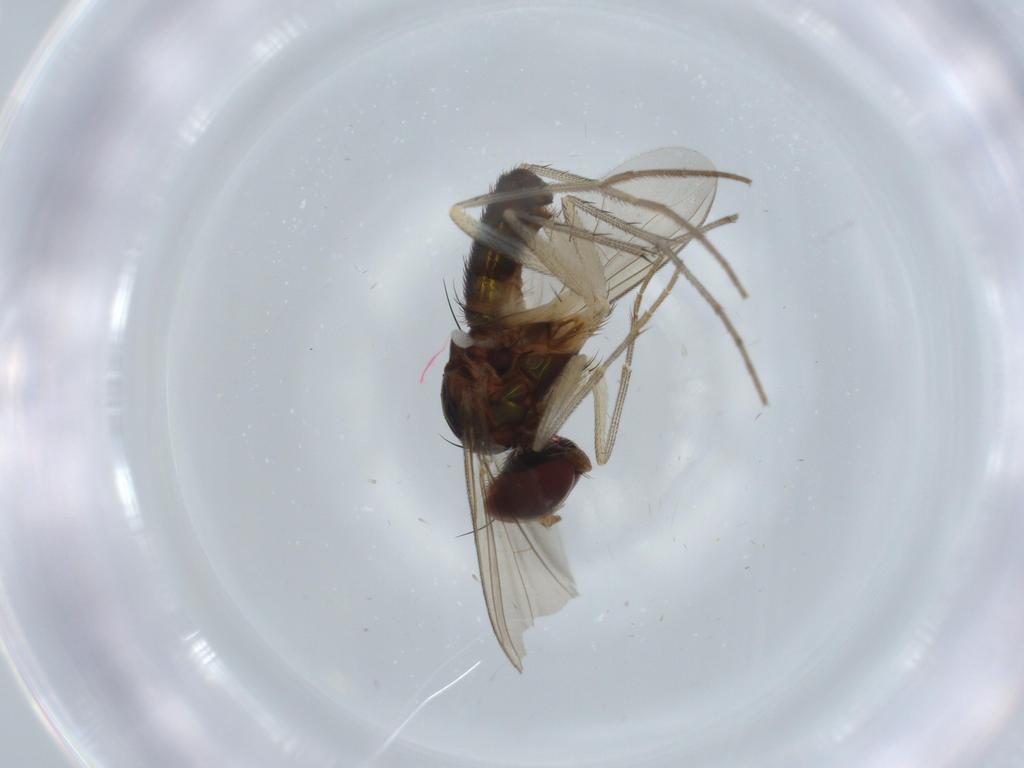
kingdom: Animalia
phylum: Arthropoda
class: Insecta
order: Diptera
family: Dolichopodidae
